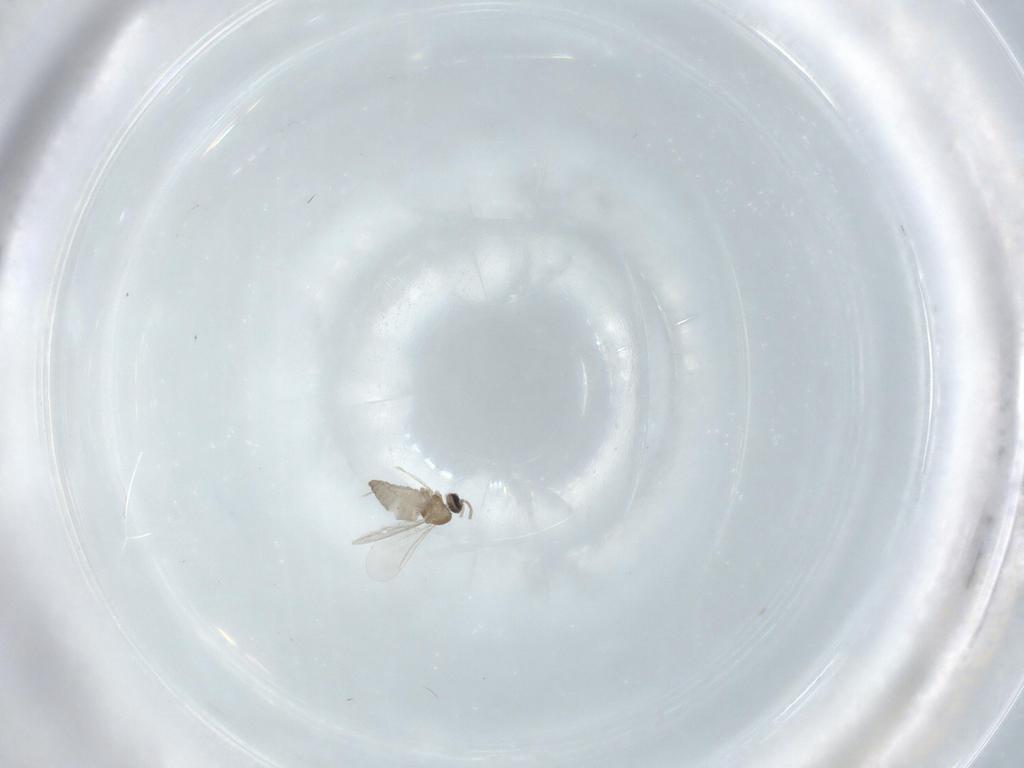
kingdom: Animalia
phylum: Arthropoda
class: Insecta
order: Diptera
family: Cecidomyiidae
